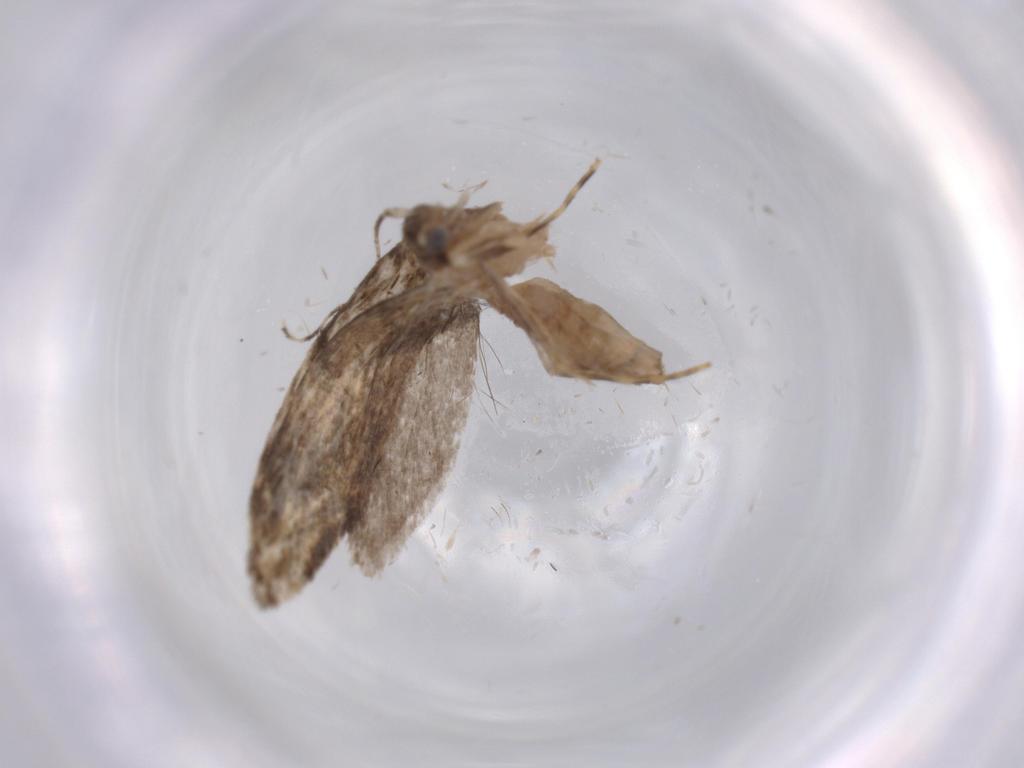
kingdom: Animalia
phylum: Arthropoda
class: Insecta
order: Lepidoptera
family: Tineidae
